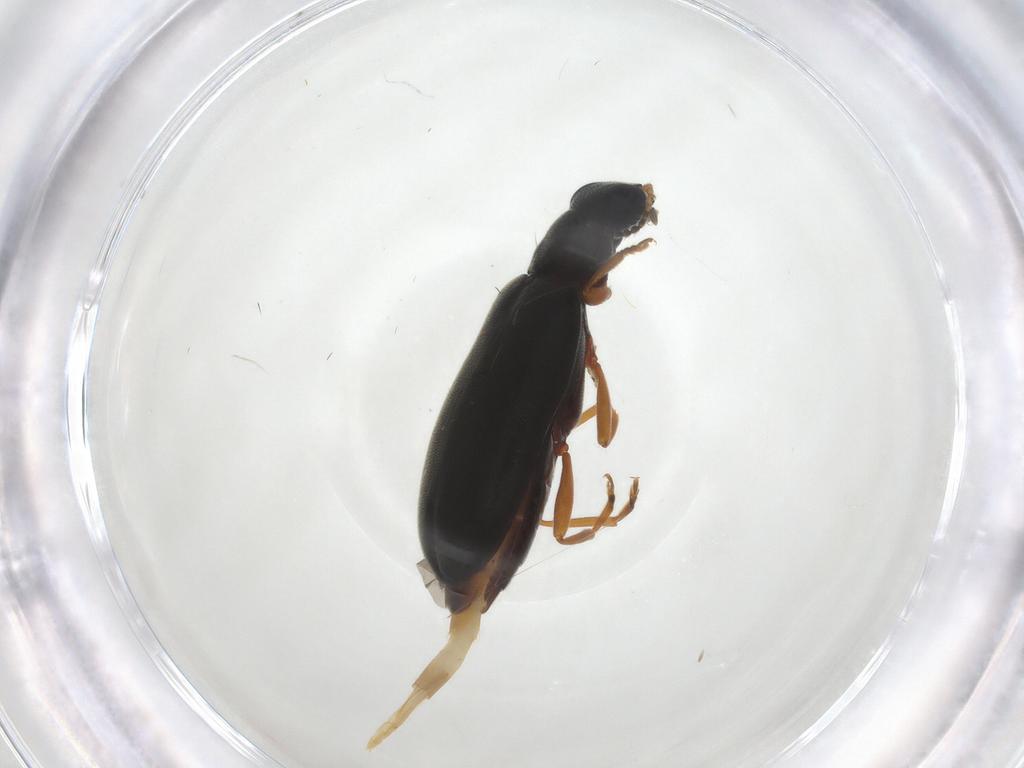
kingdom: Animalia
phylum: Arthropoda
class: Insecta
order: Coleoptera
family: Mycteridae
